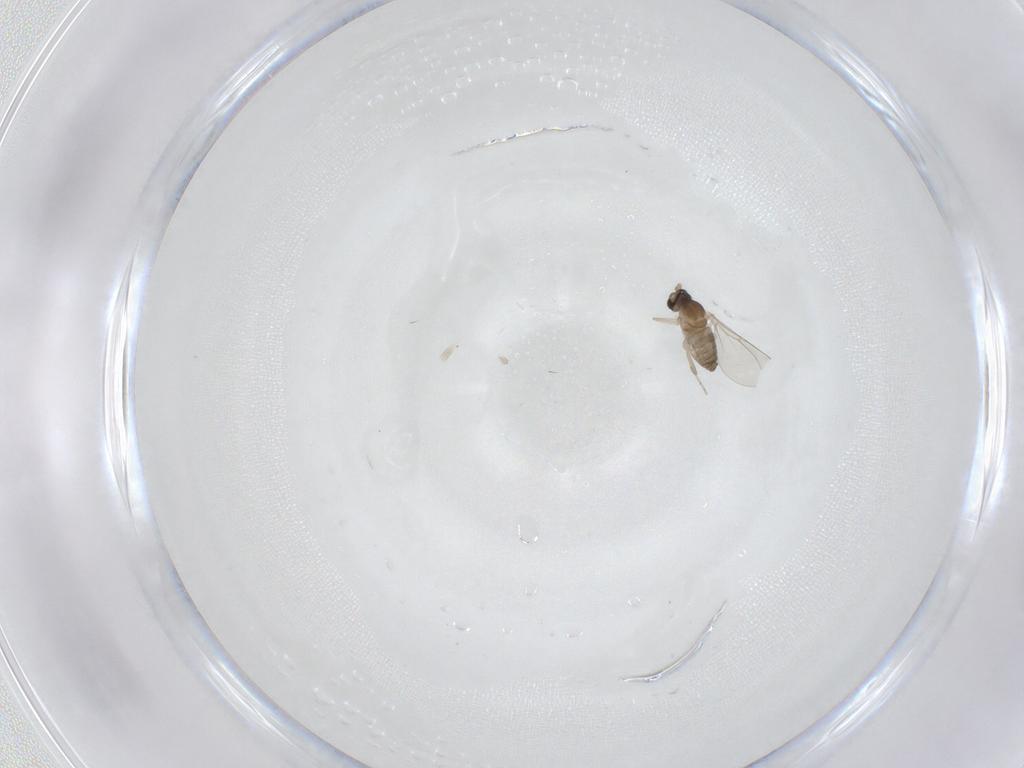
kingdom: Animalia
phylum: Arthropoda
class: Insecta
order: Diptera
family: Cecidomyiidae
